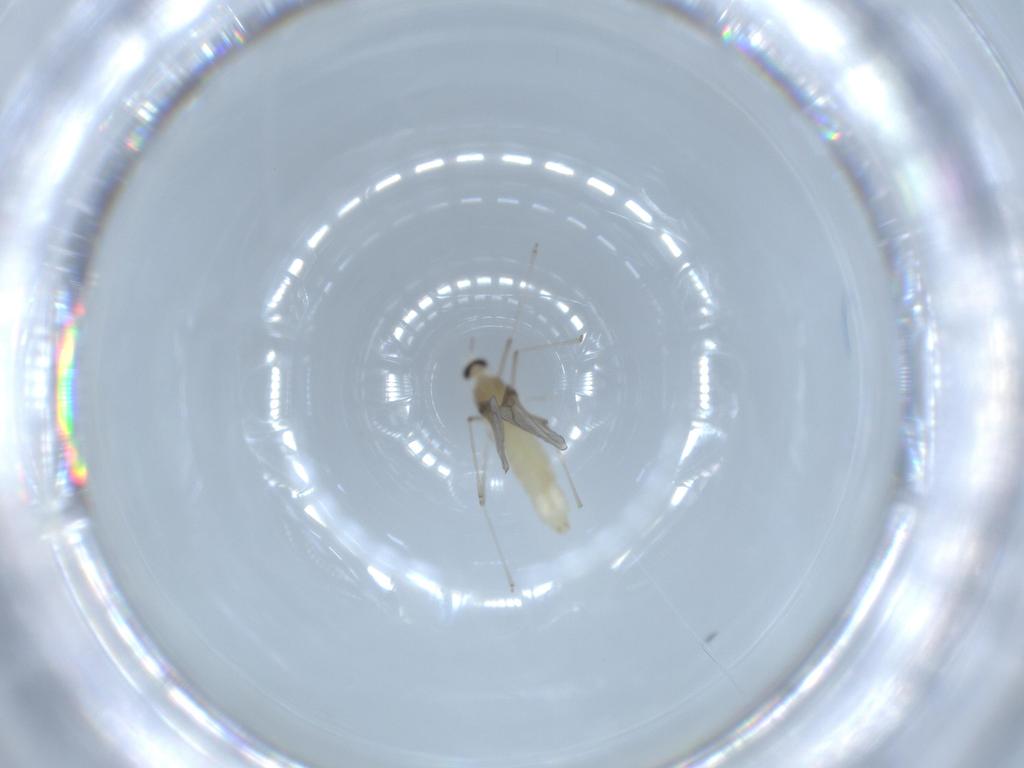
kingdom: Animalia
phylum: Arthropoda
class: Insecta
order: Diptera
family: Cecidomyiidae
